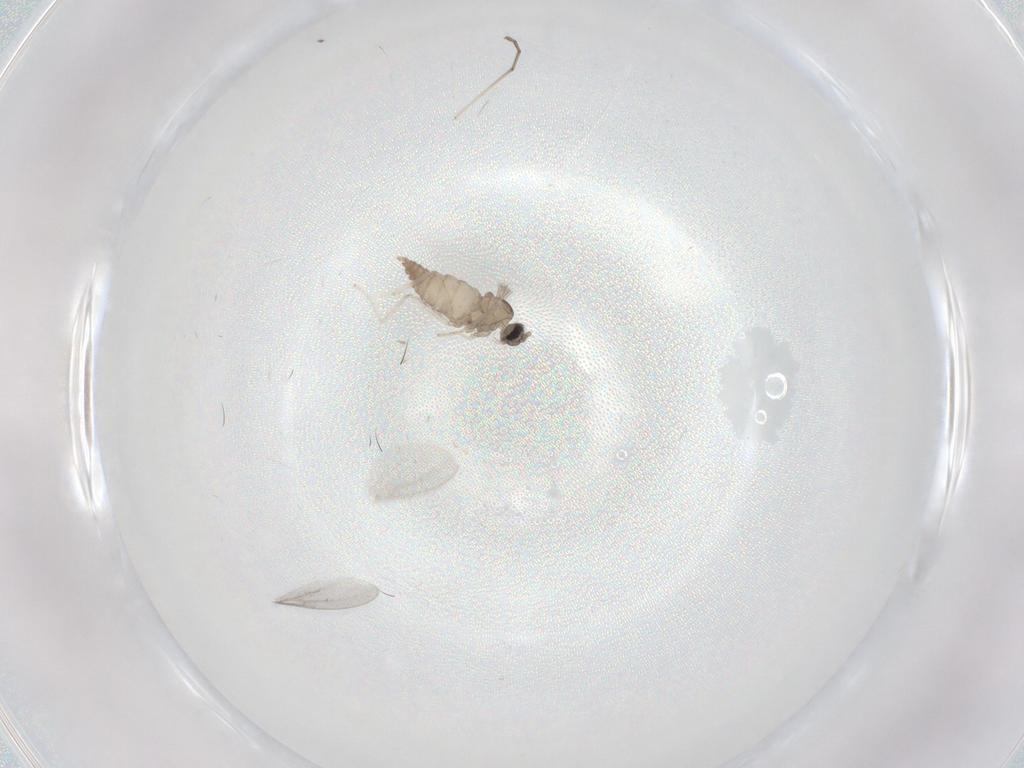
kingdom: Animalia
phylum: Arthropoda
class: Insecta
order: Diptera
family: Cecidomyiidae
